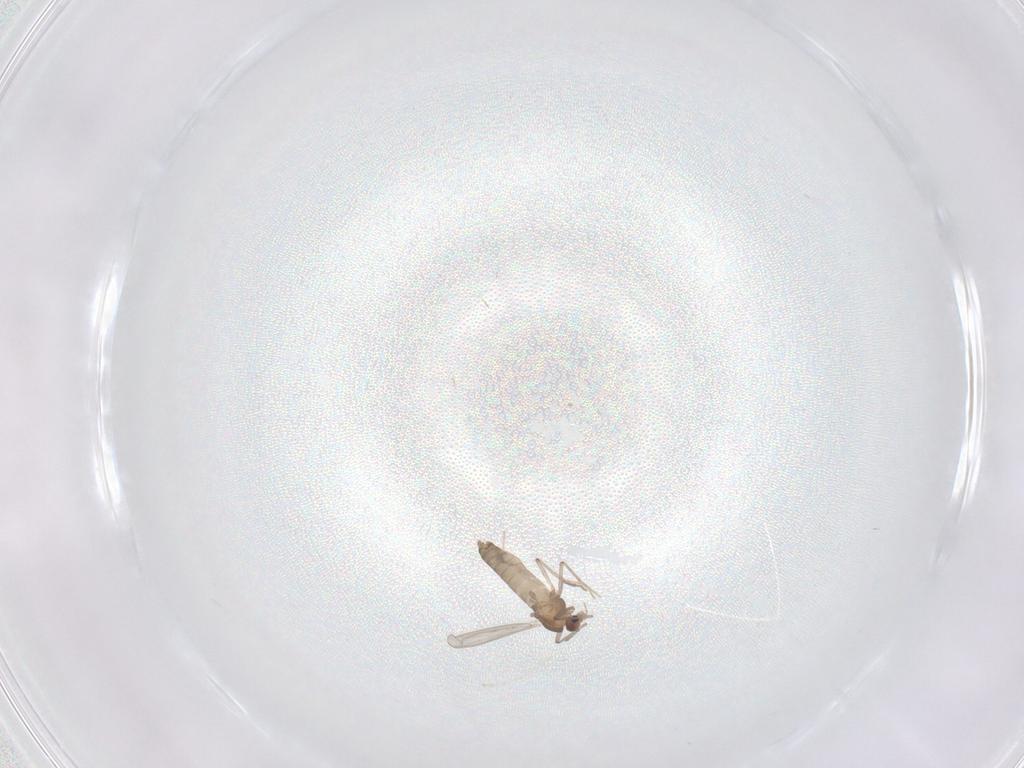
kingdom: Animalia
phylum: Arthropoda
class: Insecta
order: Diptera
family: Chironomidae
